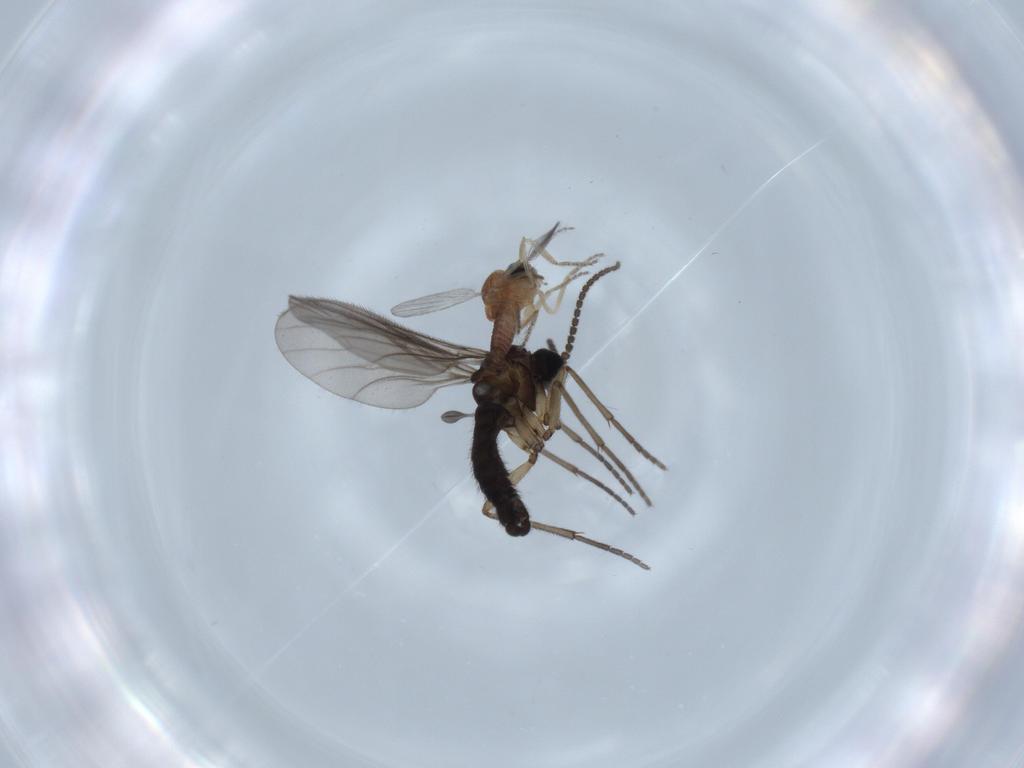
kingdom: Animalia
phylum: Arthropoda
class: Insecta
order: Diptera
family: Sciaridae
